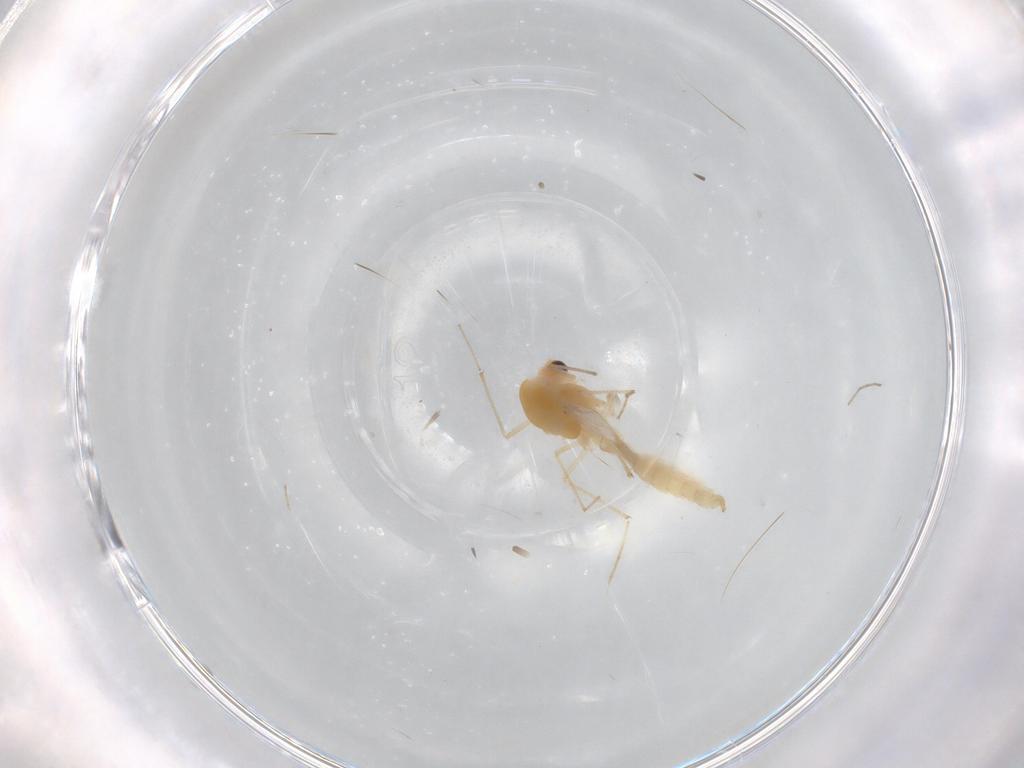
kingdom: Animalia
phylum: Arthropoda
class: Insecta
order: Diptera
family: Chironomidae
